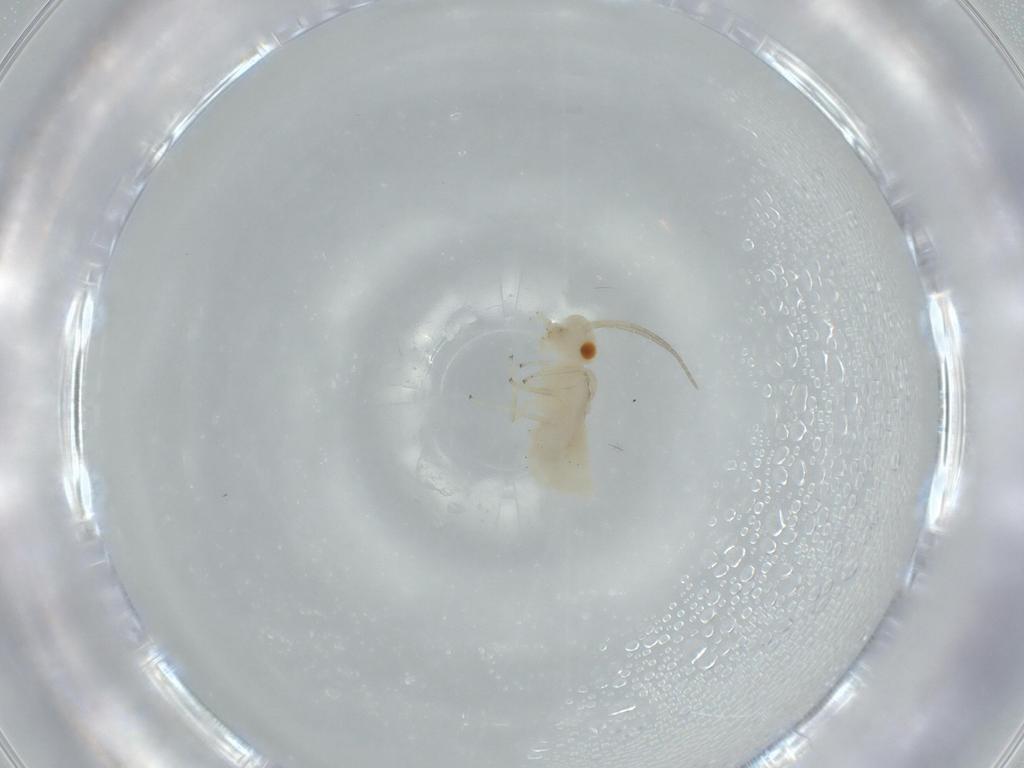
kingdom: Animalia
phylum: Arthropoda
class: Insecta
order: Psocodea
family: Caeciliusidae
